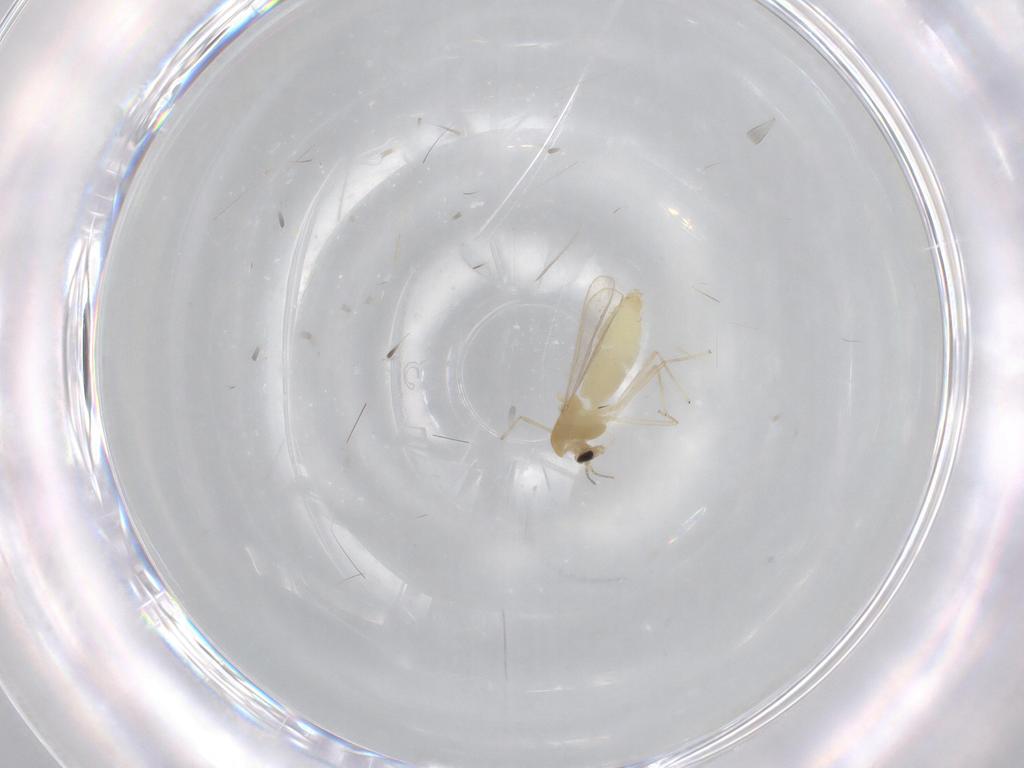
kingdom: Animalia
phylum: Arthropoda
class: Insecta
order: Diptera
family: Chironomidae
